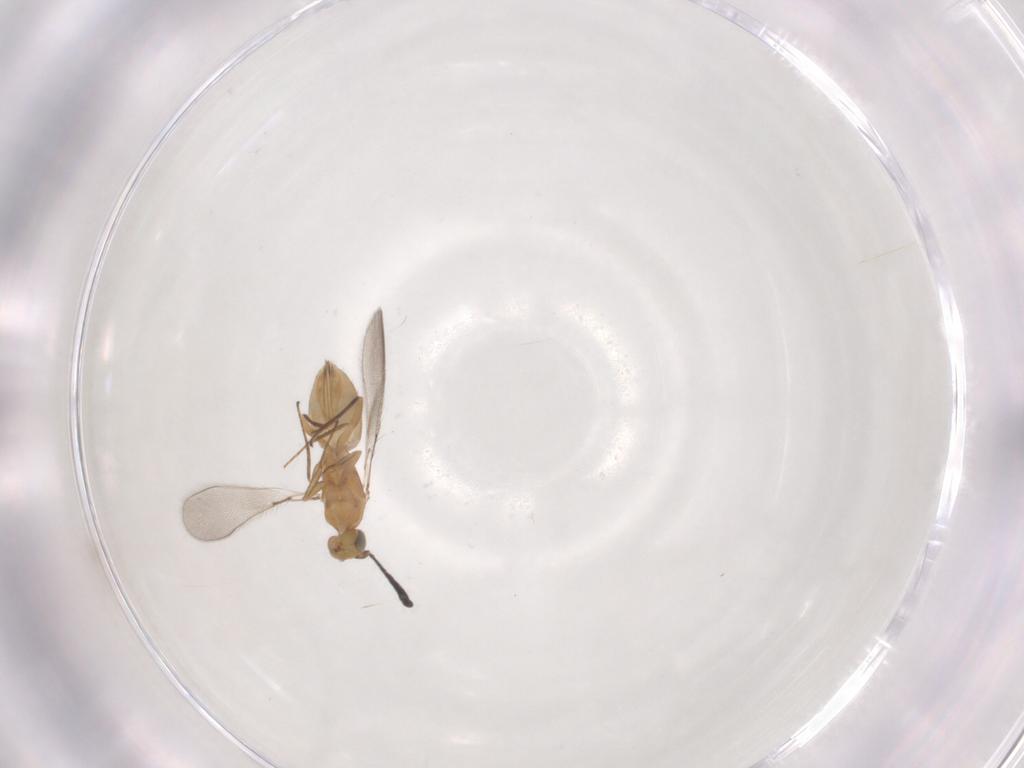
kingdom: Animalia
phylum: Arthropoda
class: Insecta
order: Hymenoptera
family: Mymaridae
